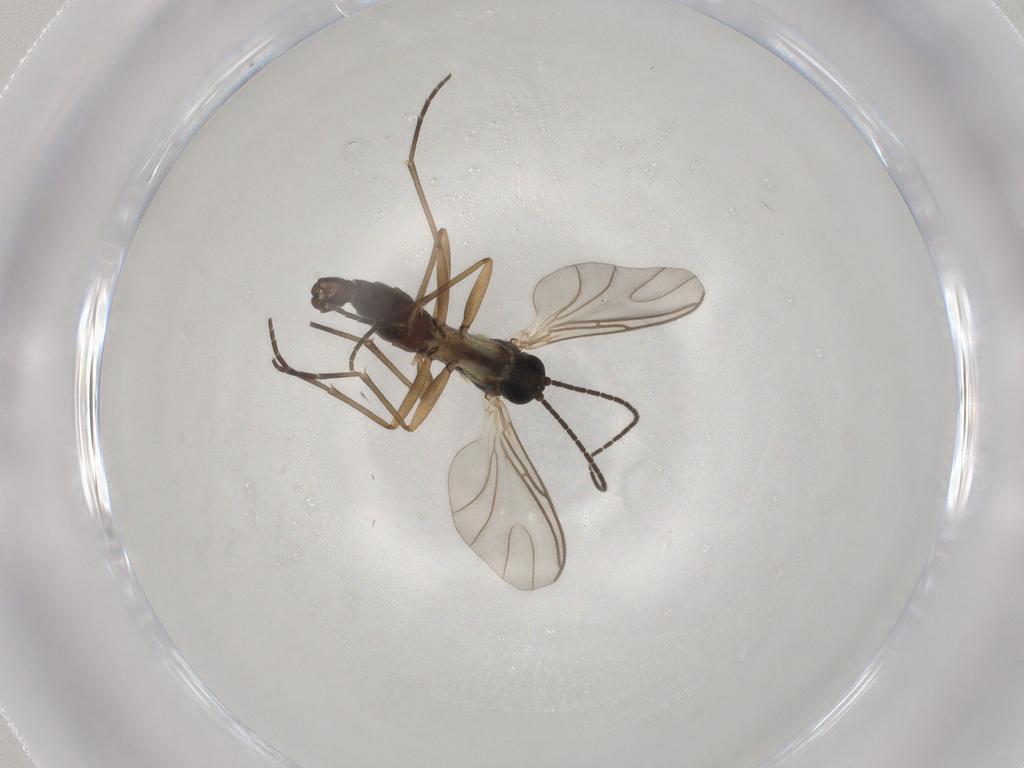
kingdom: Animalia
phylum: Arthropoda
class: Insecta
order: Diptera
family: Sciaridae
